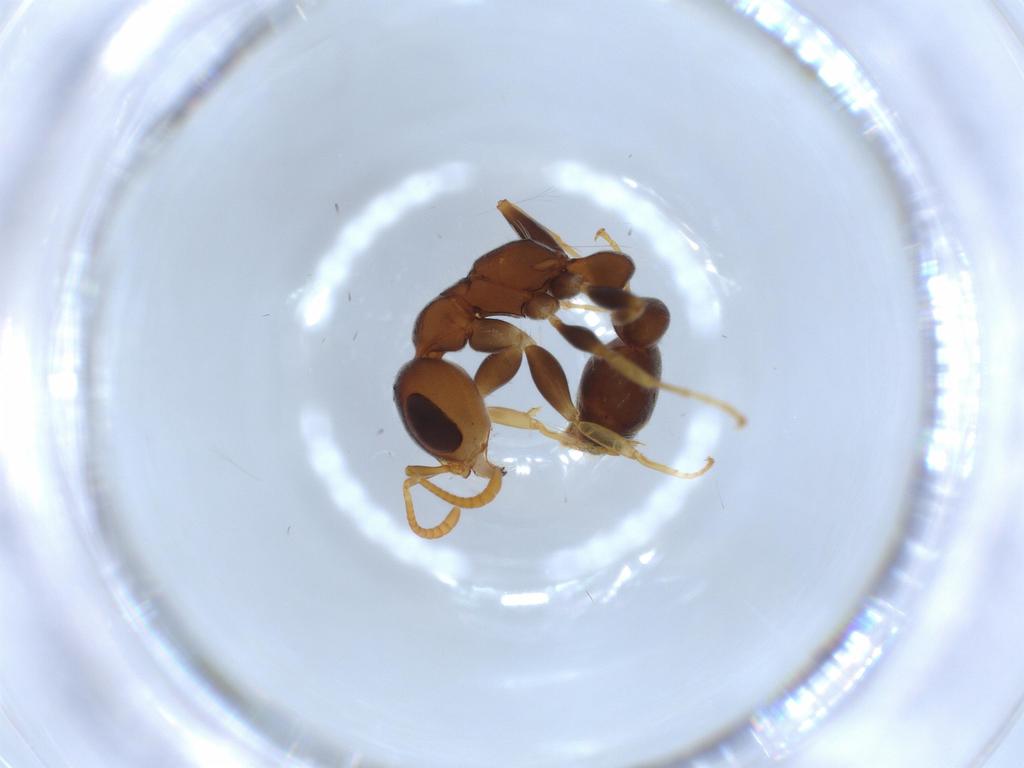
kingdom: Animalia
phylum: Arthropoda
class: Insecta
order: Hymenoptera
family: Formicidae
